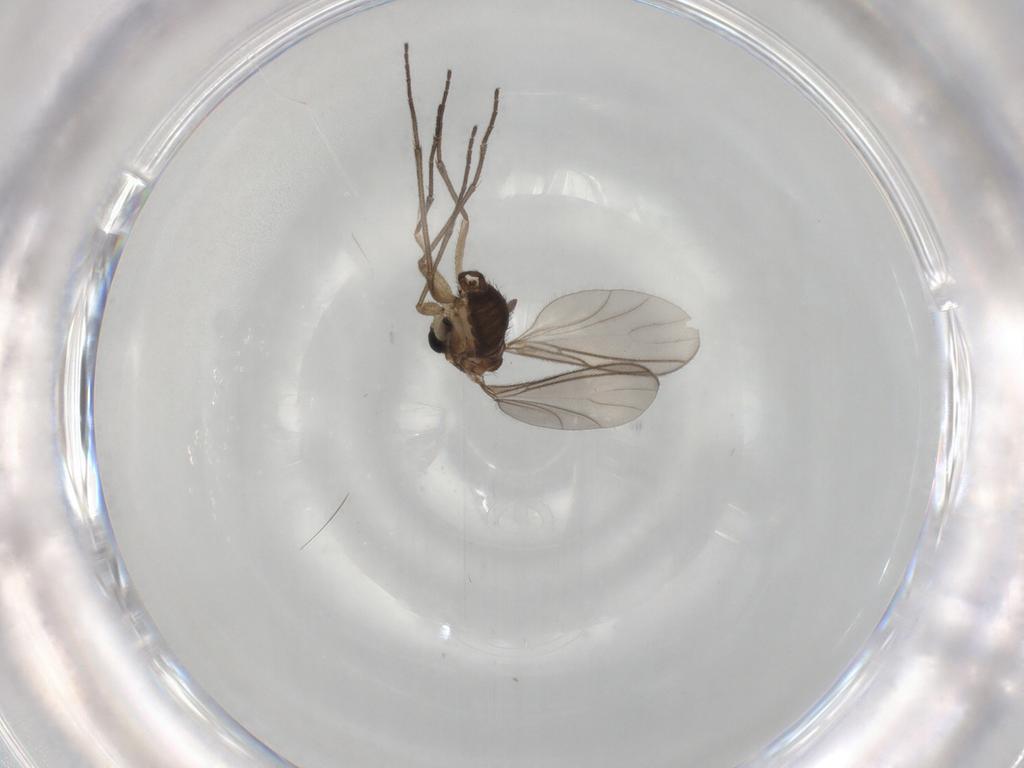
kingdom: Animalia
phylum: Arthropoda
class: Insecta
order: Diptera
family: Sciaridae
